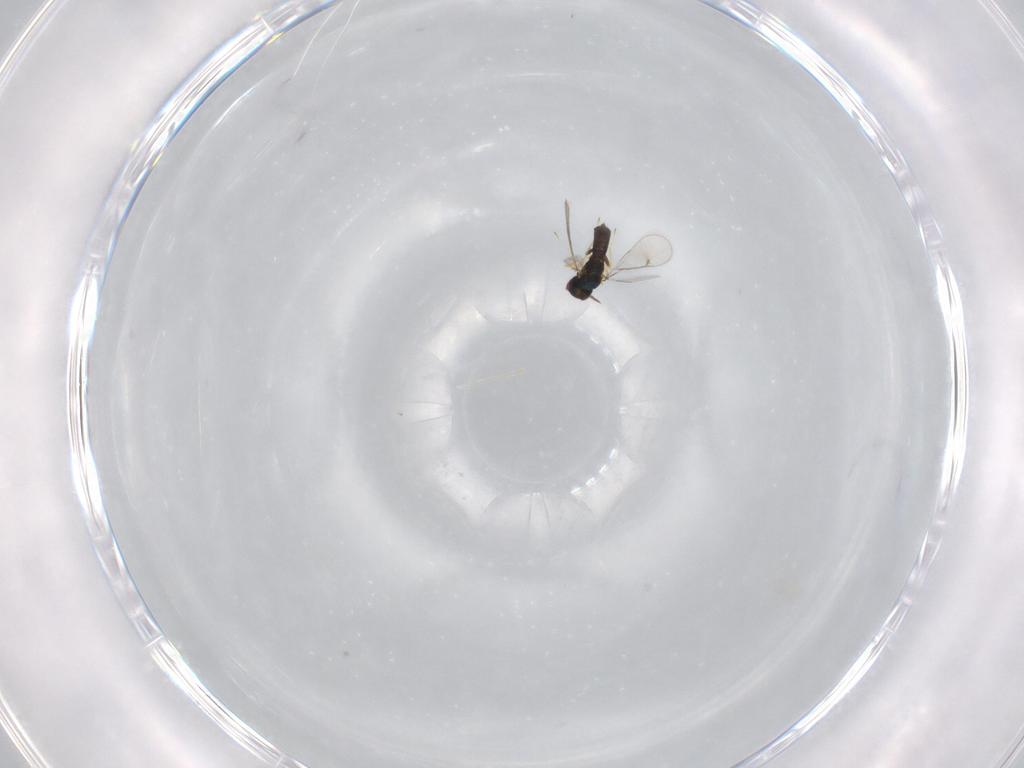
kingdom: Animalia
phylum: Arthropoda
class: Insecta
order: Hymenoptera
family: Eulophidae
